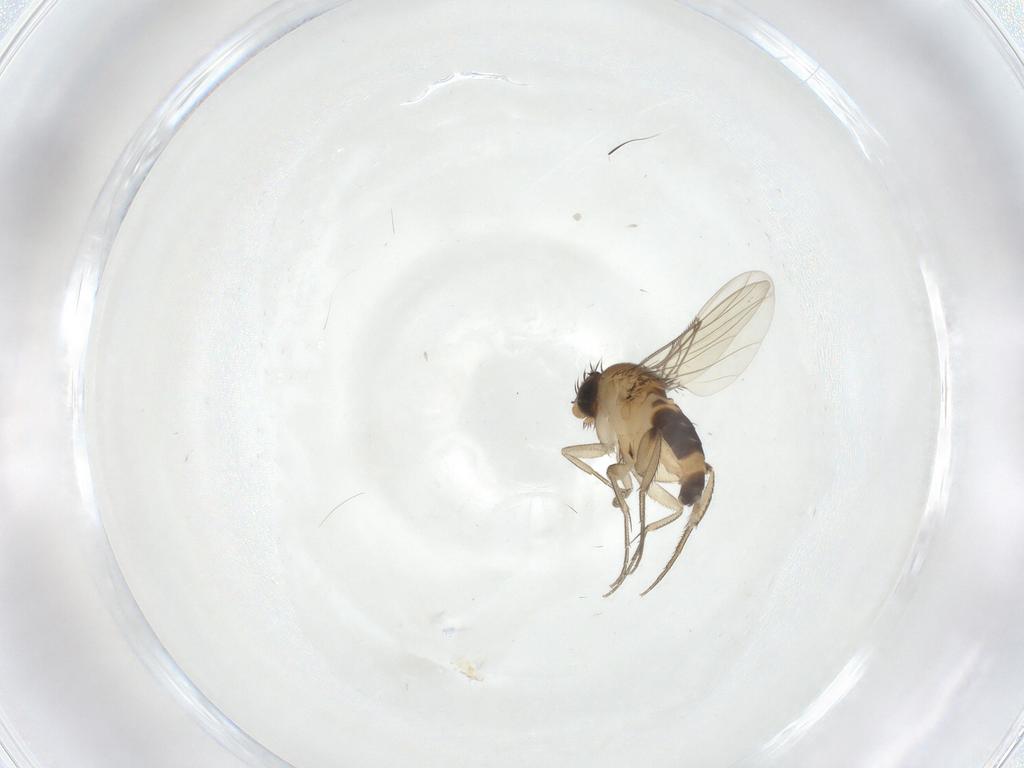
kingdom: Animalia
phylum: Arthropoda
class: Insecta
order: Diptera
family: Phoridae
